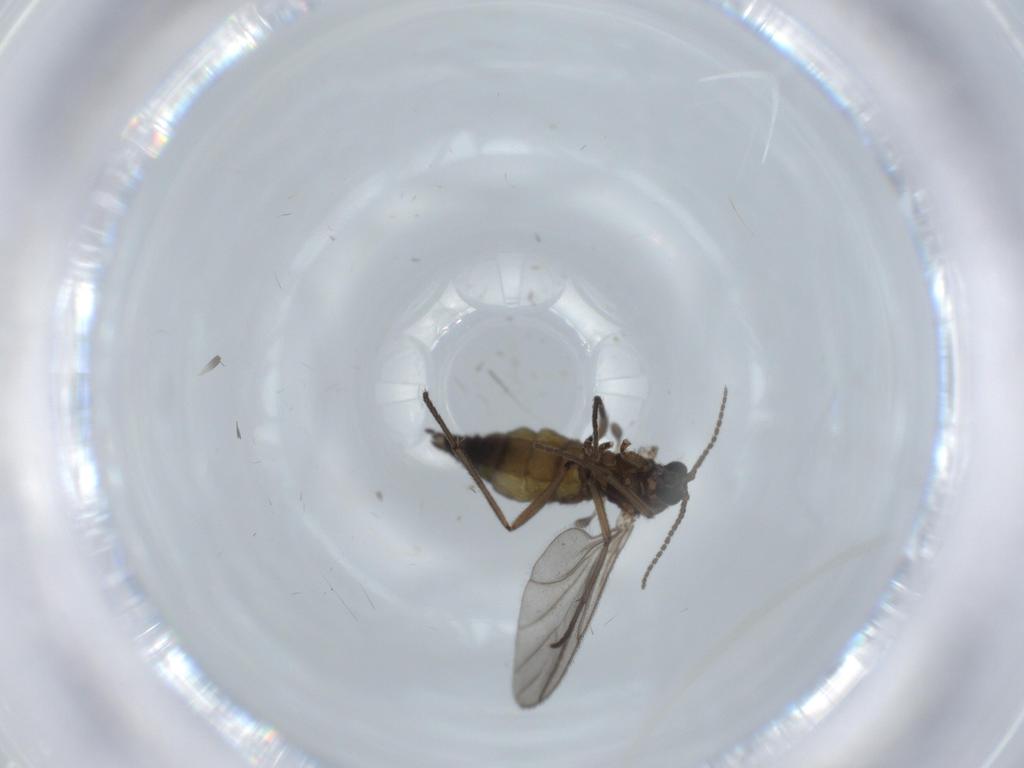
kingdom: Animalia
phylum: Arthropoda
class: Insecta
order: Diptera
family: Sciaridae
